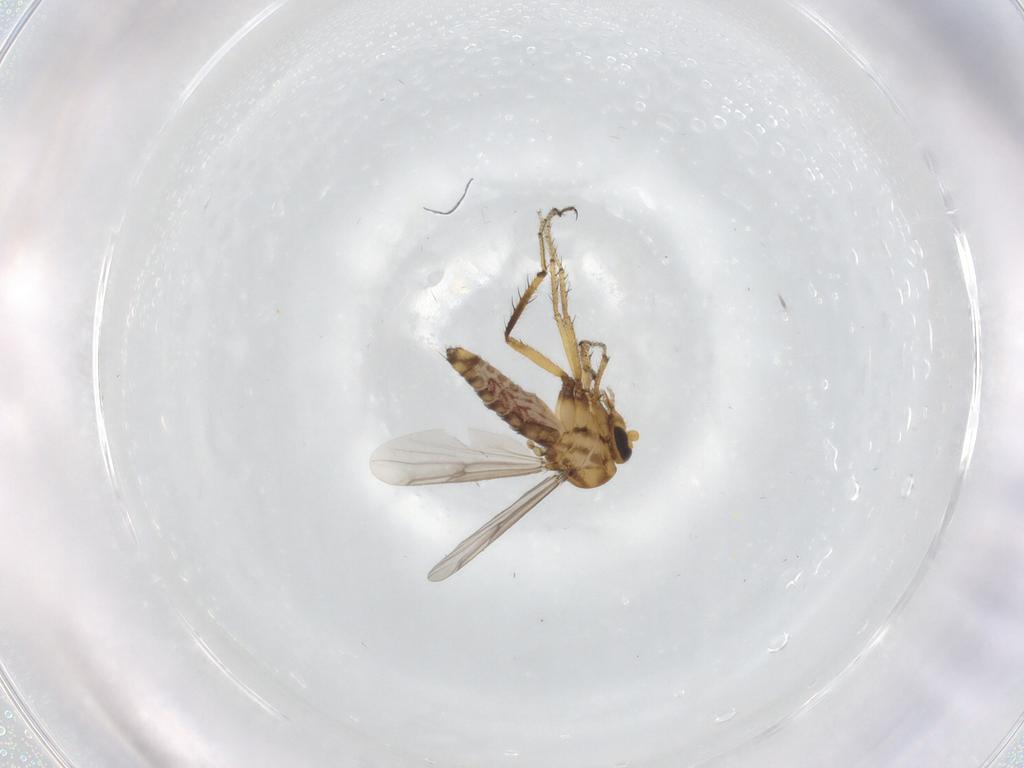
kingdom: Animalia
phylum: Arthropoda
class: Insecta
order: Diptera
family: Ceratopogonidae
